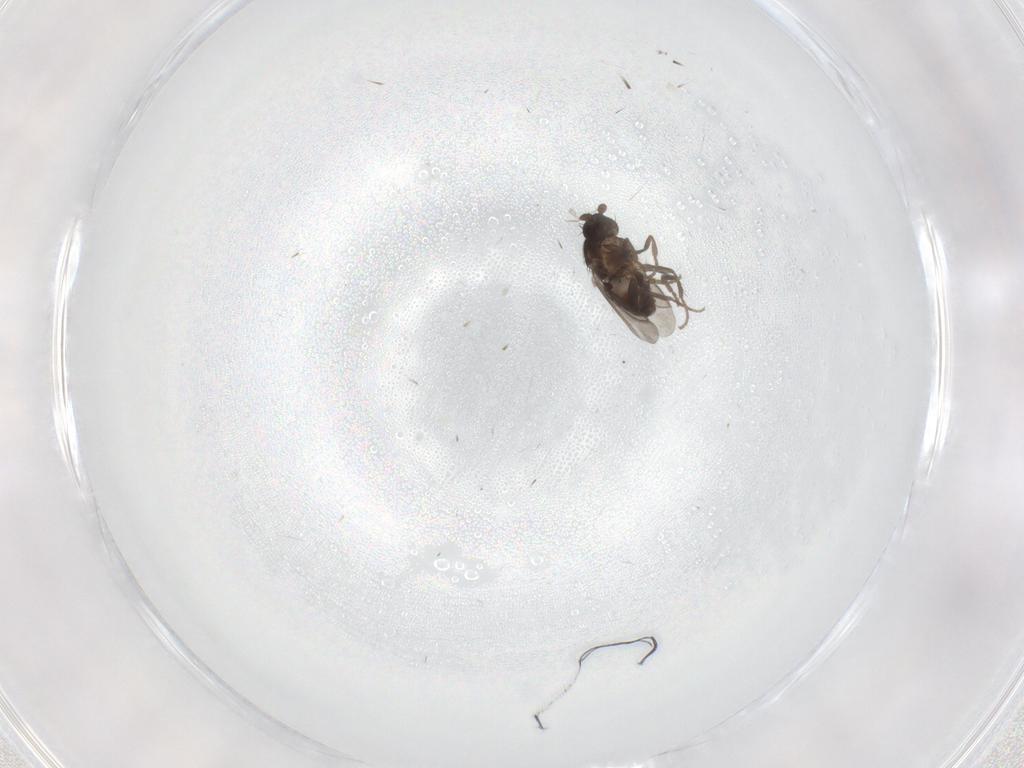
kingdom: Animalia
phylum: Arthropoda
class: Insecta
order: Diptera
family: Sphaeroceridae
